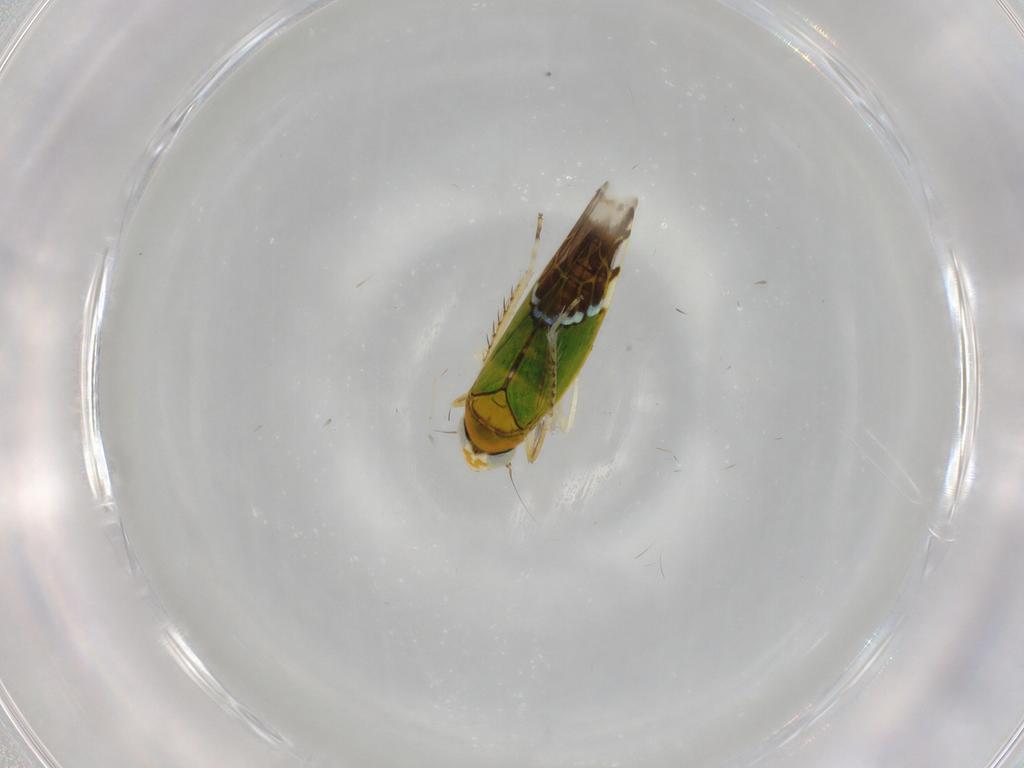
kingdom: Animalia
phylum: Arthropoda
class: Insecta
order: Hemiptera
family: Cicadellidae
